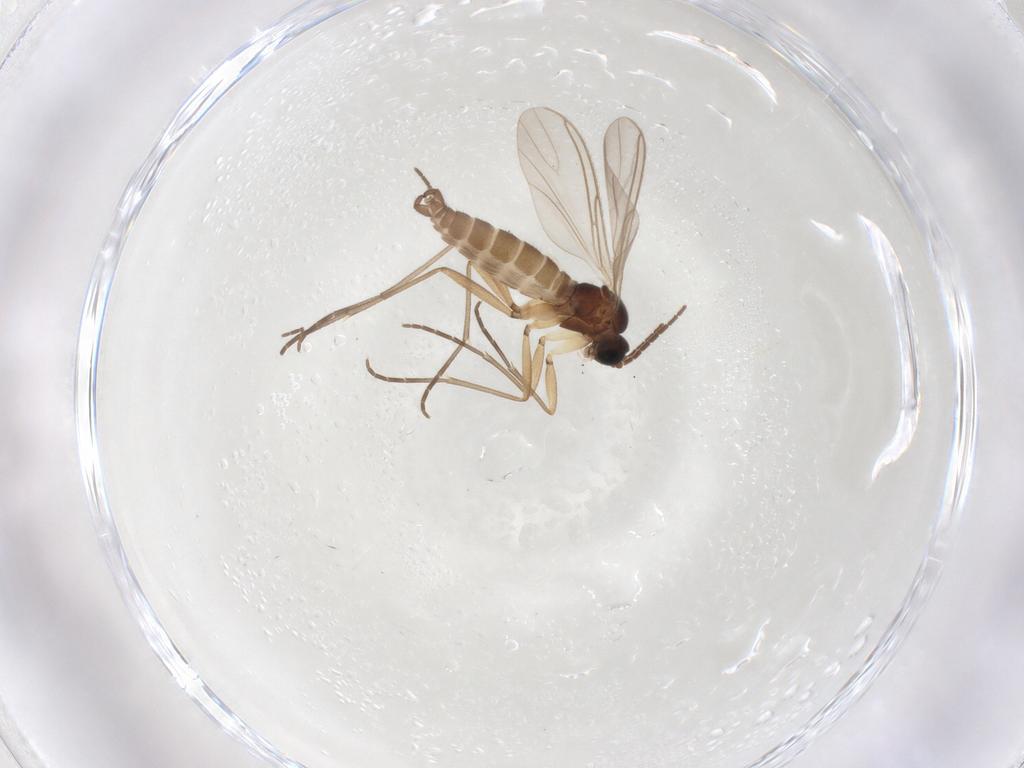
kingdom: Animalia
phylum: Arthropoda
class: Insecta
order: Diptera
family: Sciaridae
